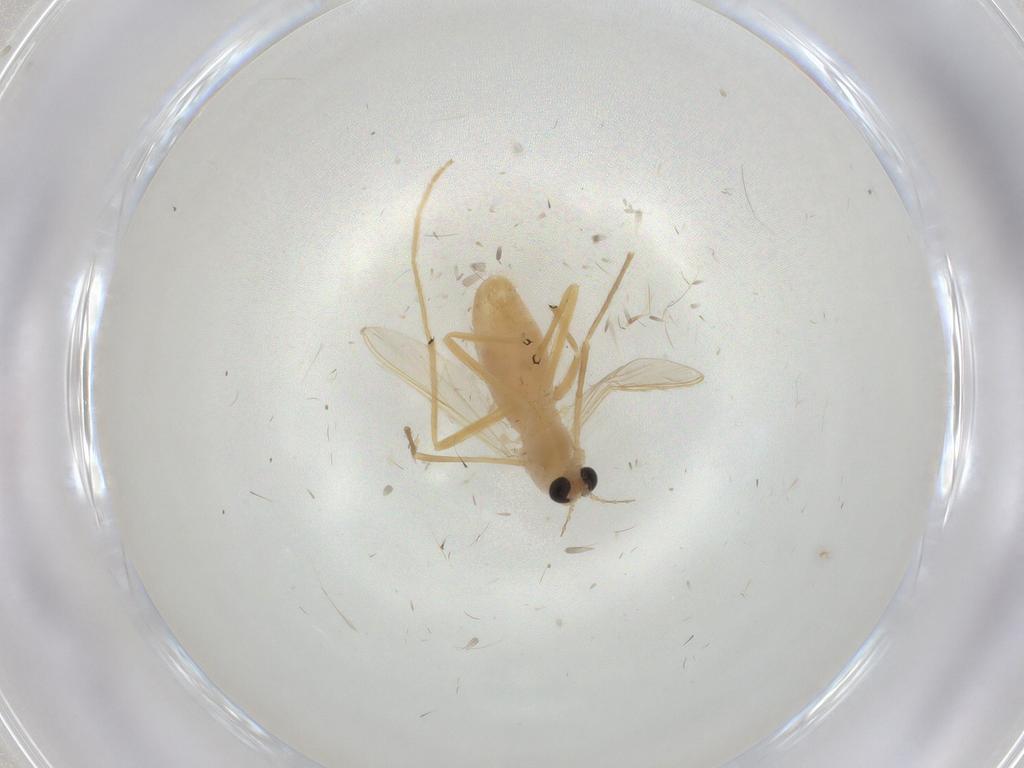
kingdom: Animalia
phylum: Arthropoda
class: Insecta
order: Diptera
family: Chironomidae
